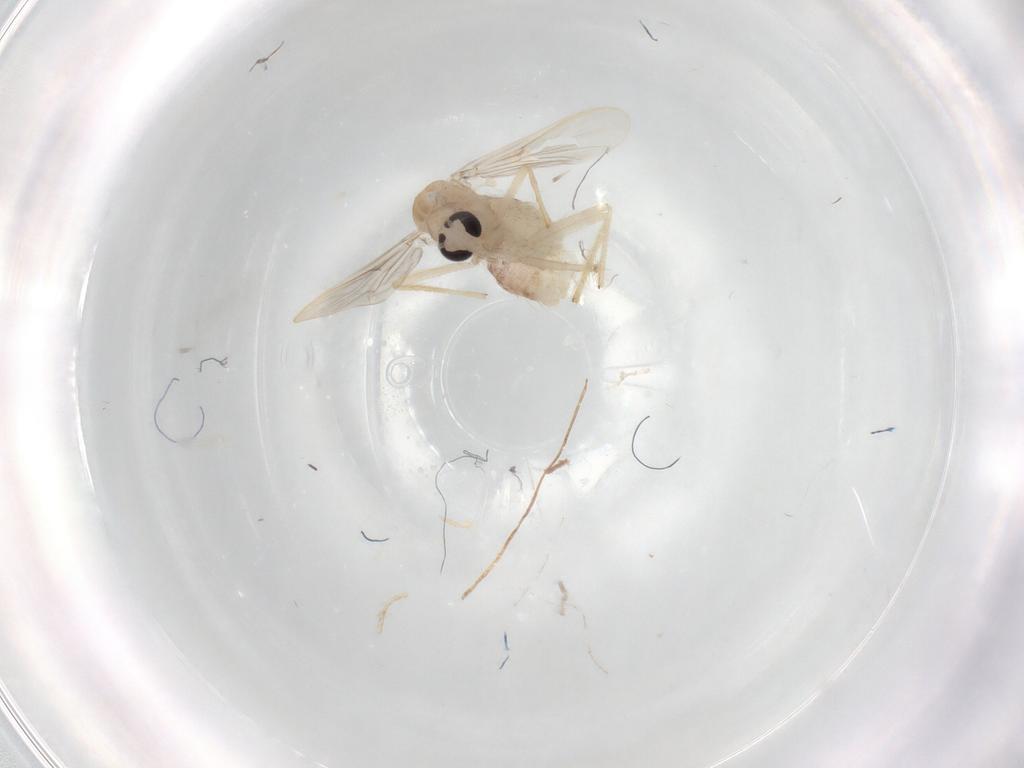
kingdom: Animalia
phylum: Arthropoda
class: Insecta
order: Diptera
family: Chironomidae
